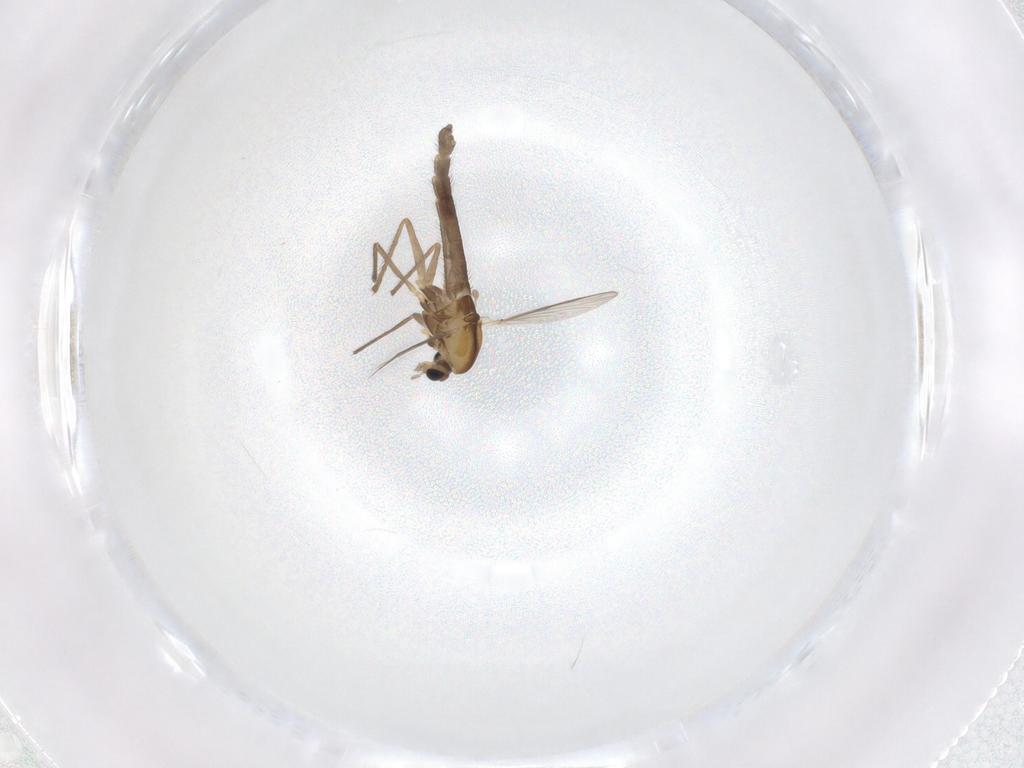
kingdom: Animalia
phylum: Arthropoda
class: Insecta
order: Diptera
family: Chironomidae
